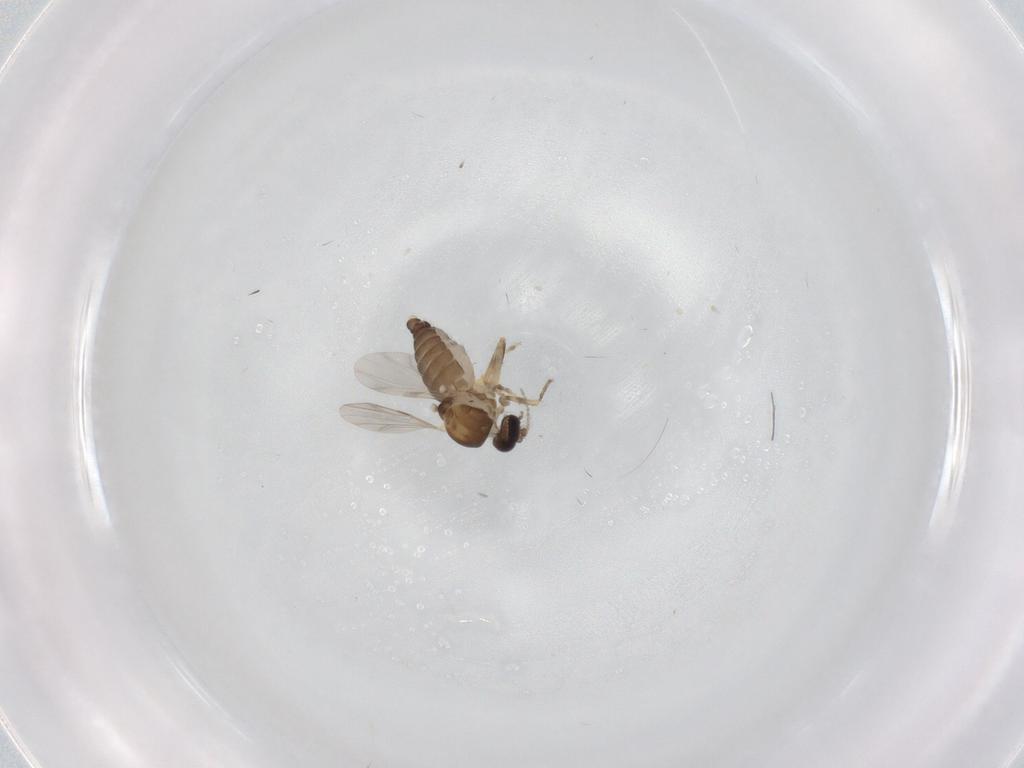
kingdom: Animalia
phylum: Arthropoda
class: Insecta
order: Diptera
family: Ceratopogonidae
